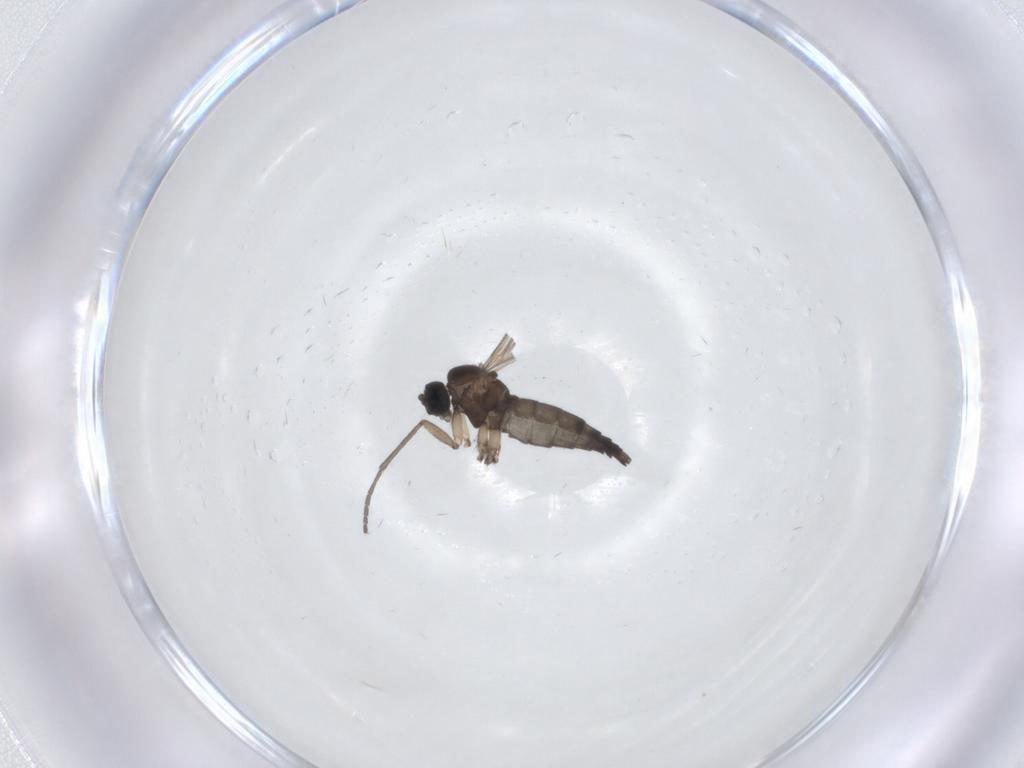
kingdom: Animalia
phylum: Arthropoda
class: Insecta
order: Diptera
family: Sciaridae
